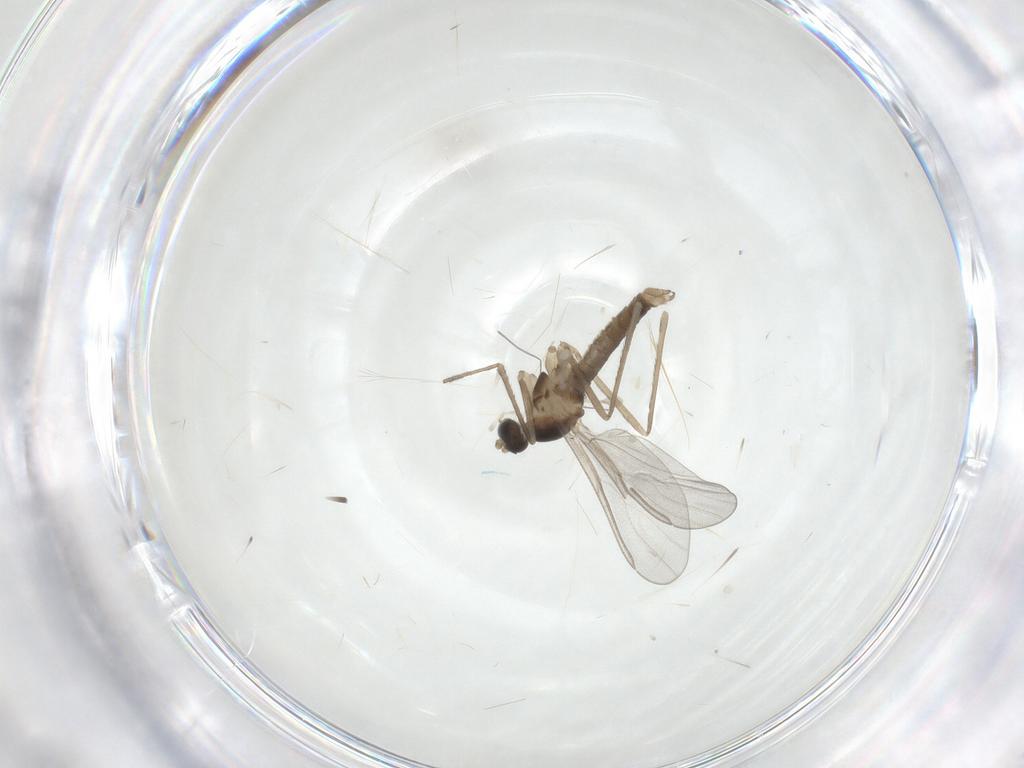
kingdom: Animalia
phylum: Arthropoda
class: Insecta
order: Diptera
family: Cecidomyiidae
